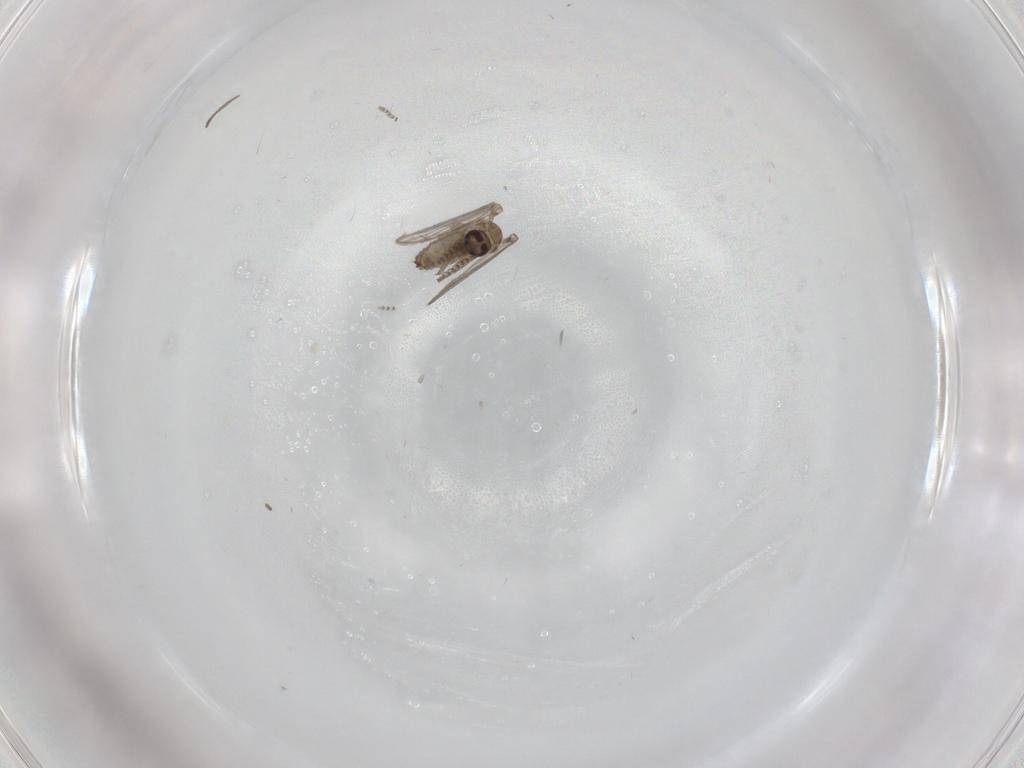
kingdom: Animalia
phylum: Arthropoda
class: Insecta
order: Diptera
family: Psychodidae
